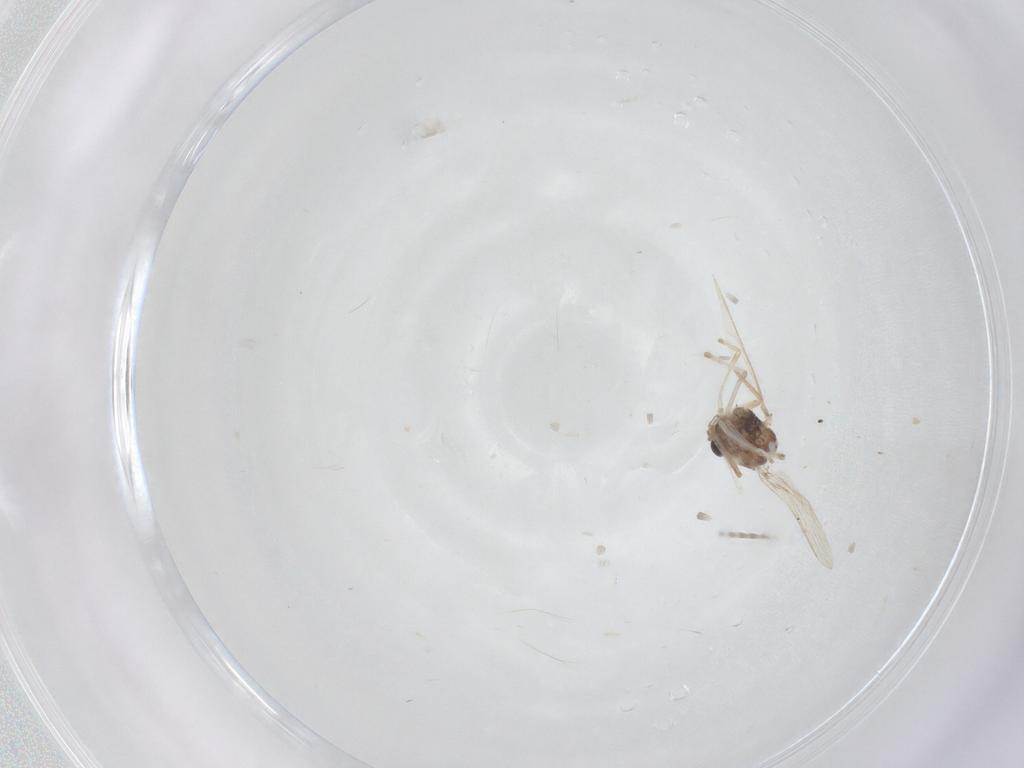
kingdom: Animalia
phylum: Arthropoda
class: Insecta
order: Diptera
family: Chironomidae
